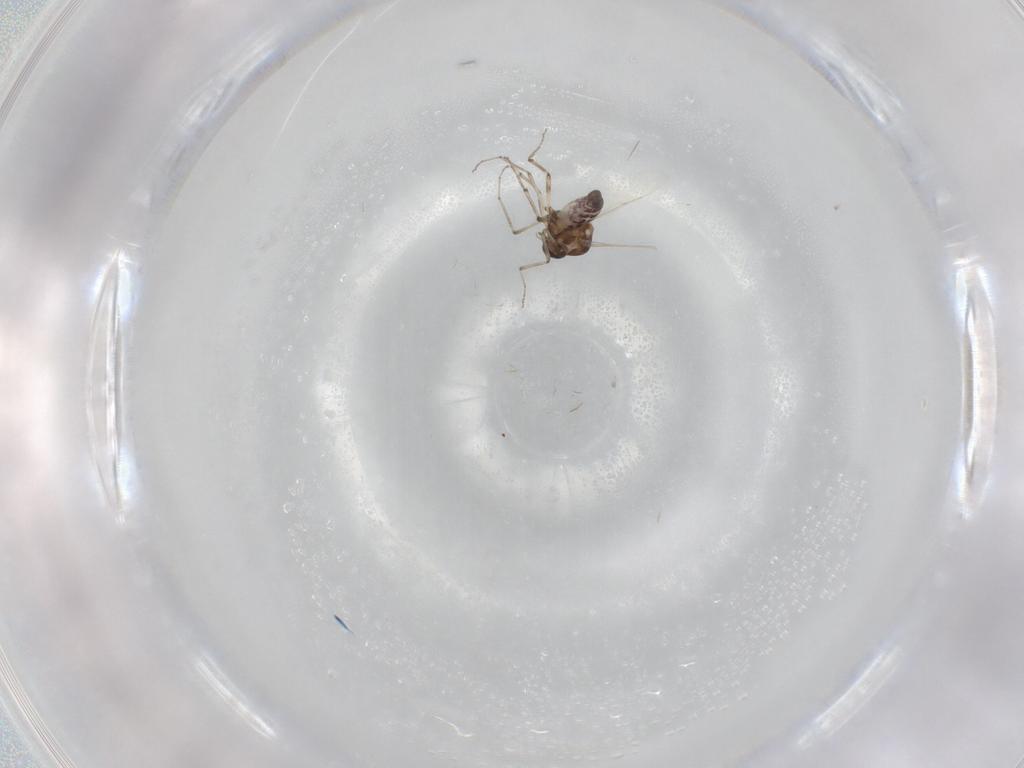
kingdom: Animalia
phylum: Arthropoda
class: Insecta
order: Diptera
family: Ceratopogonidae
